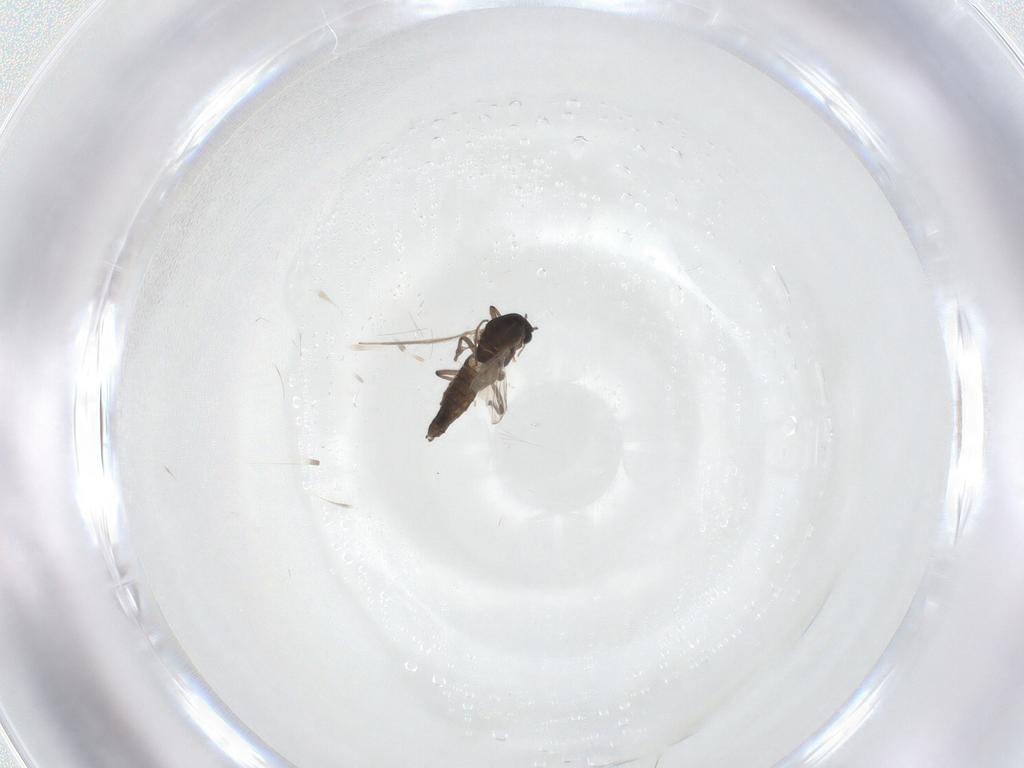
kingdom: Animalia
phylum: Arthropoda
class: Insecta
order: Diptera
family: Chironomidae
